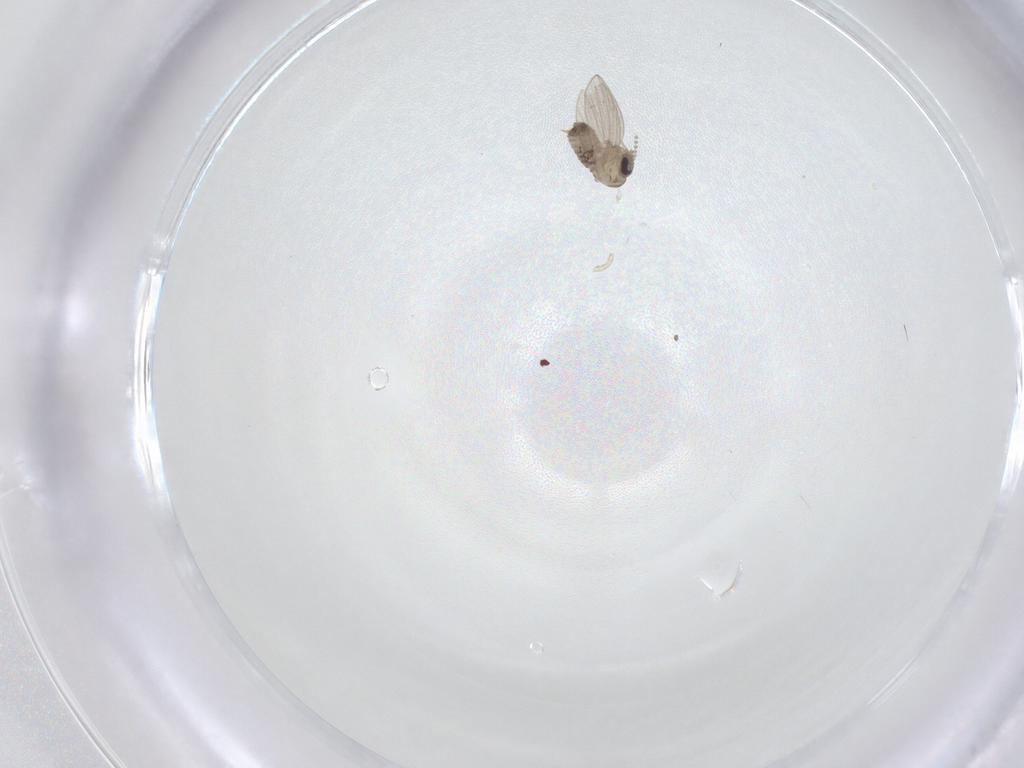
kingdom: Animalia
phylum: Arthropoda
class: Insecta
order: Diptera
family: Psychodidae
